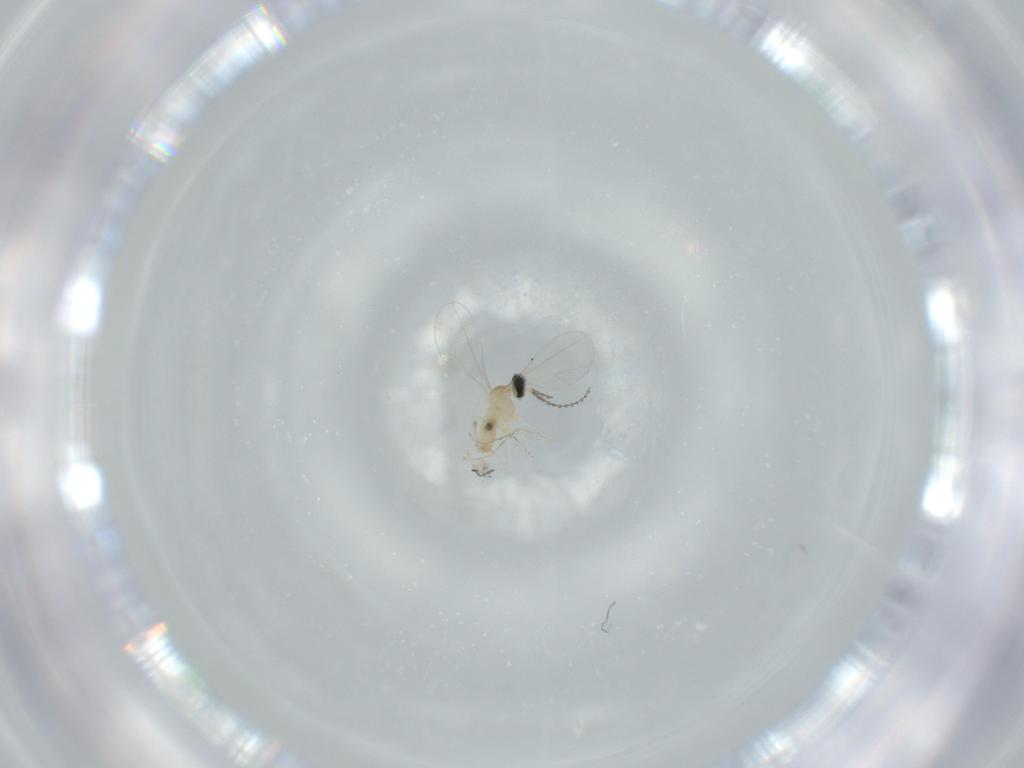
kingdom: Animalia
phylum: Arthropoda
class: Insecta
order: Diptera
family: Cecidomyiidae
